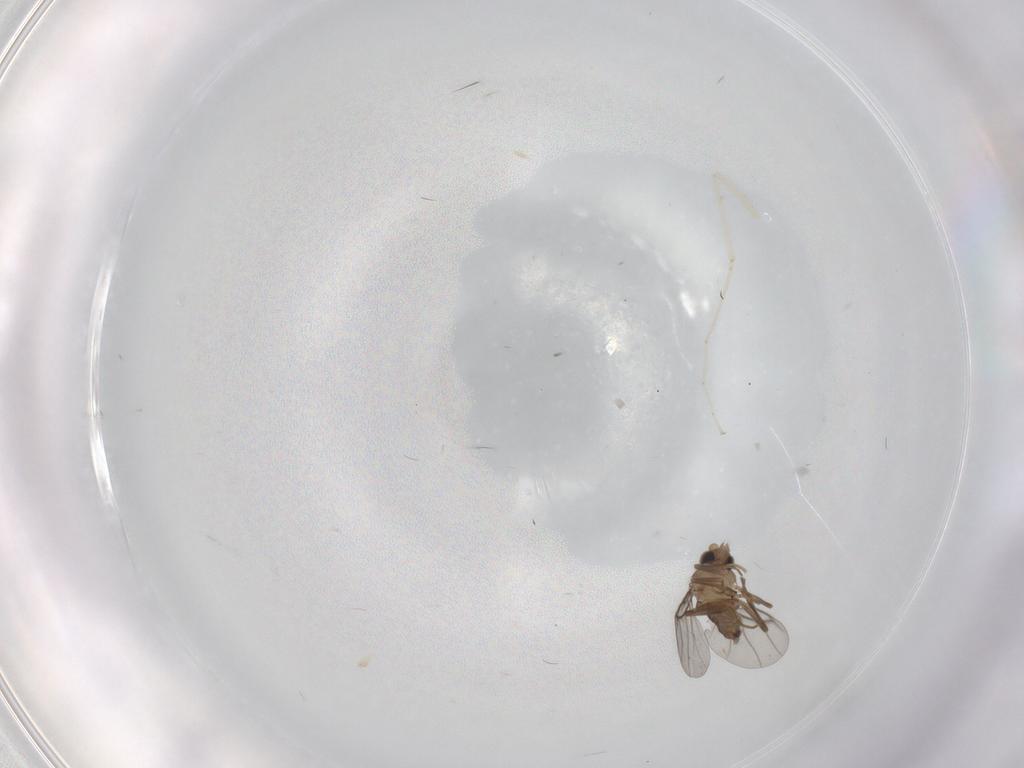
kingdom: Animalia
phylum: Arthropoda
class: Insecta
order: Diptera
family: Cecidomyiidae
